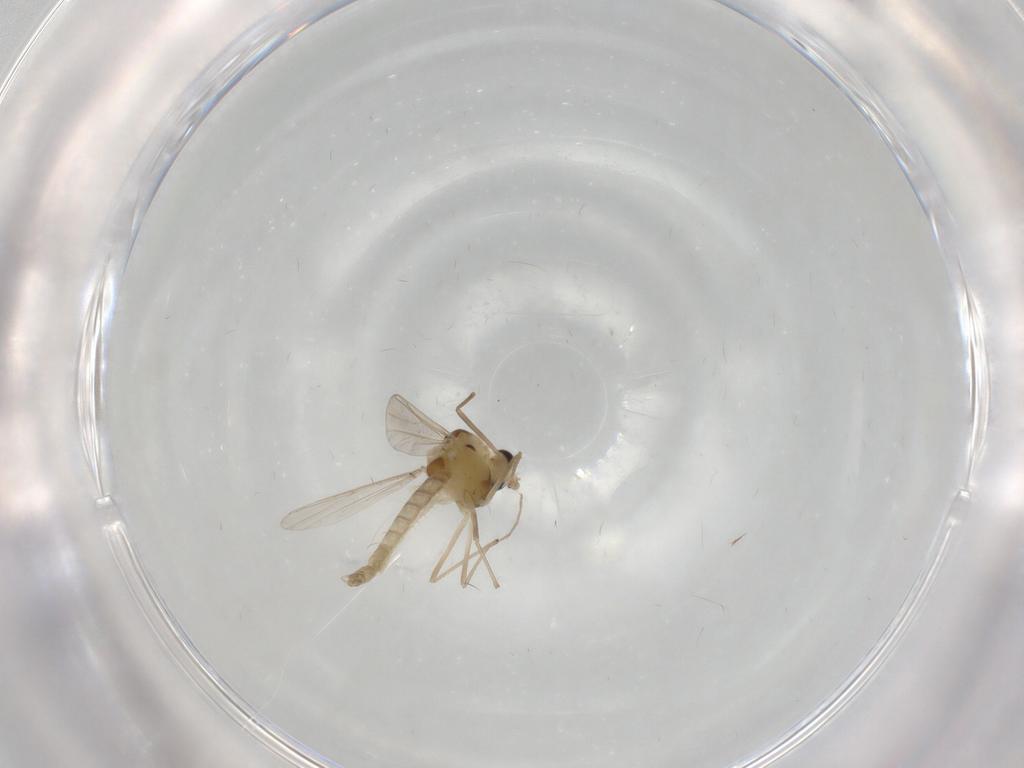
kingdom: Animalia
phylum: Arthropoda
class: Insecta
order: Diptera
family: Chironomidae
